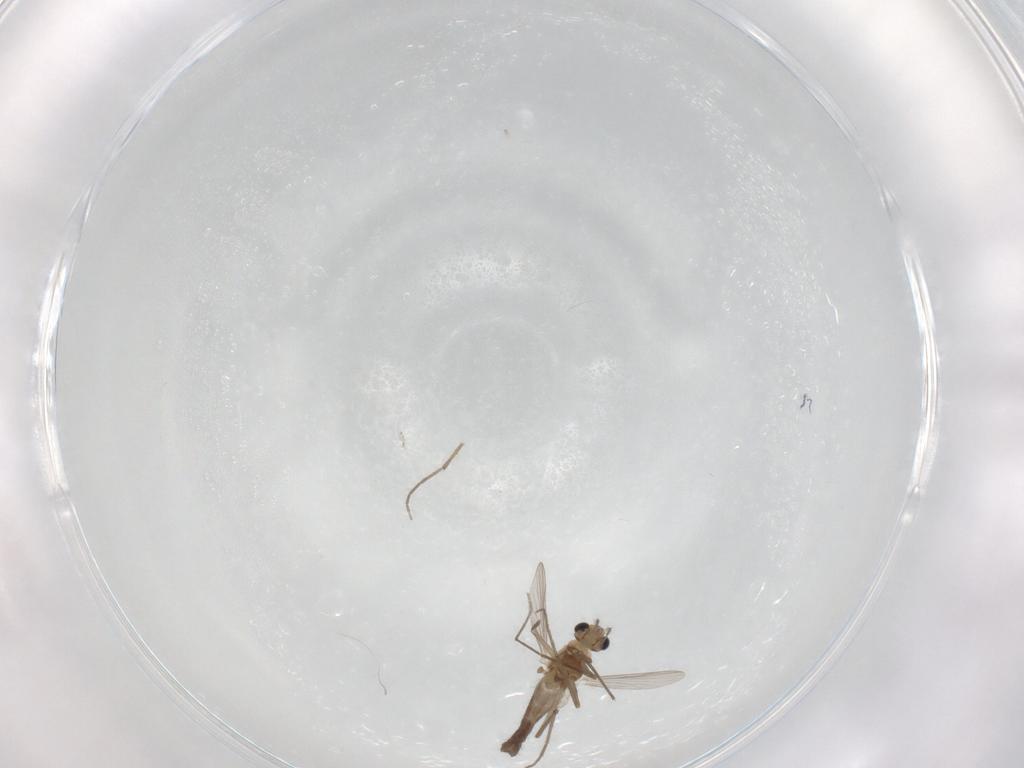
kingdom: Animalia
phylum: Arthropoda
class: Insecta
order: Diptera
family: Chironomidae
